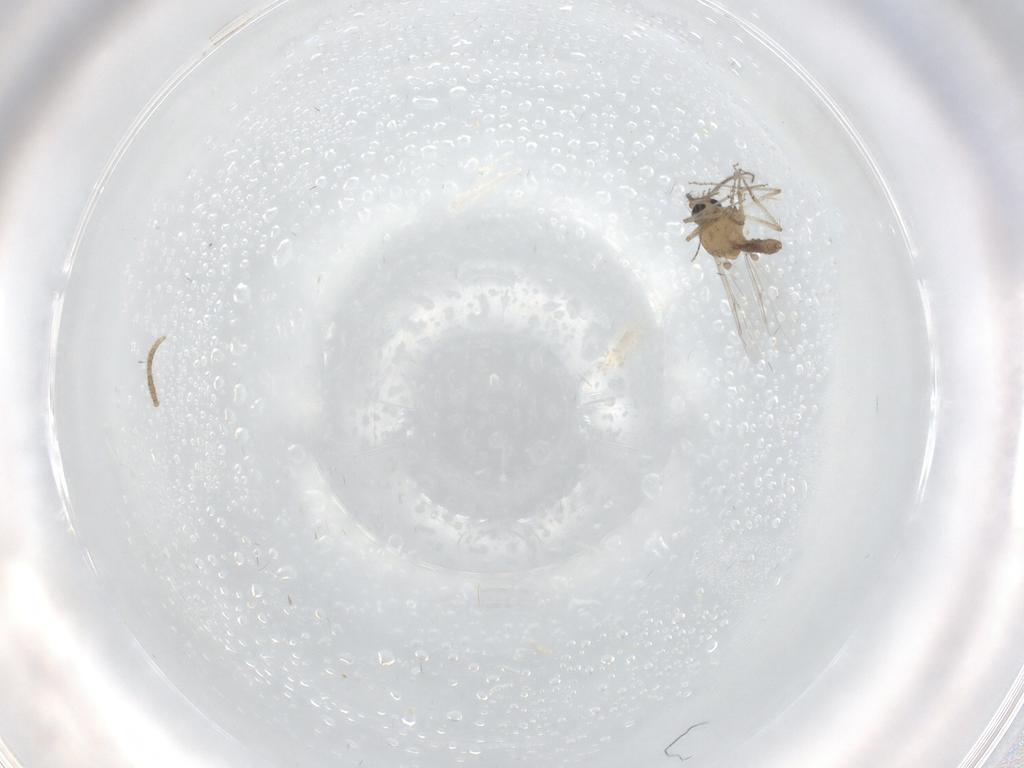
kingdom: Animalia
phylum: Arthropoda
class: Insecta
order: Diptera
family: Chironomidae
